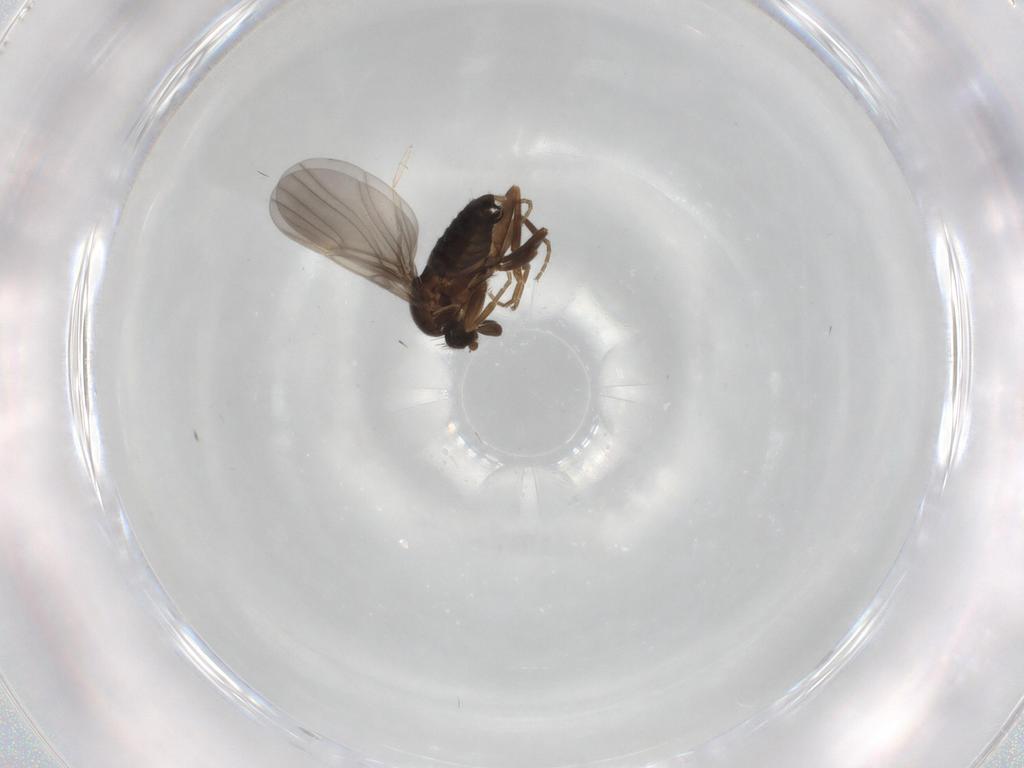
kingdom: Animalia
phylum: Arthropoda
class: Insecta
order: Diptera
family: Phoridae
